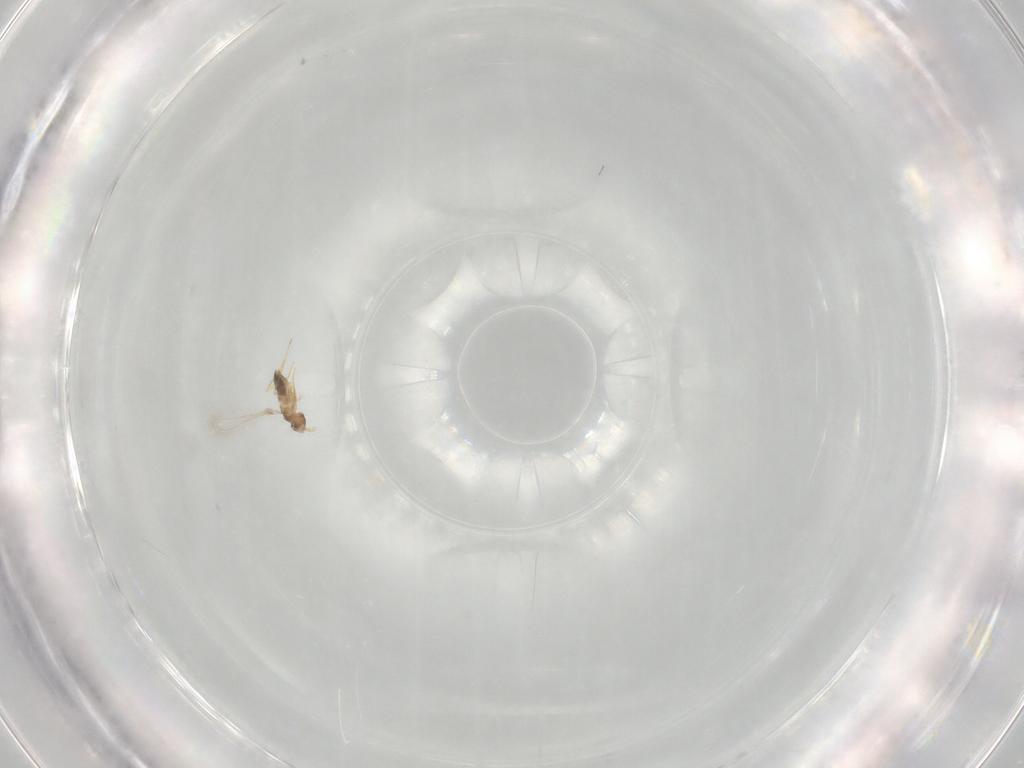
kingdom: Animalia
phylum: Arthropoda
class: Insecta
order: Hymenoptera
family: Mymaridae
